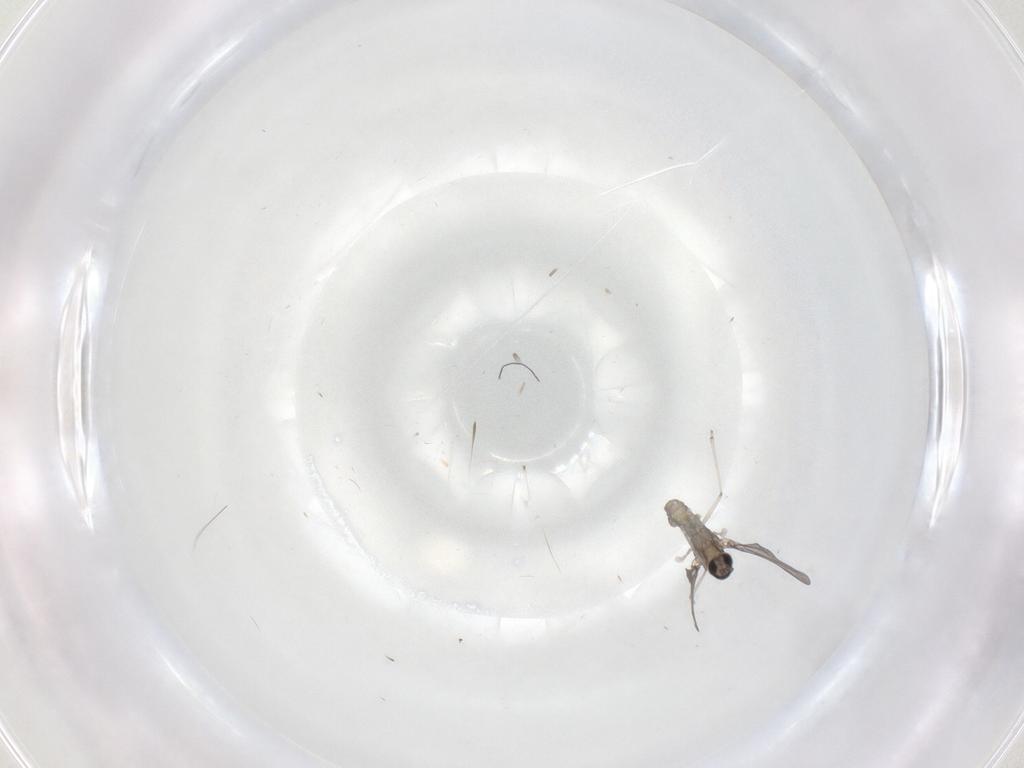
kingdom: Animalia
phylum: Arthropoda
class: Insecta
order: Diptera
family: Cecidomyiidae
